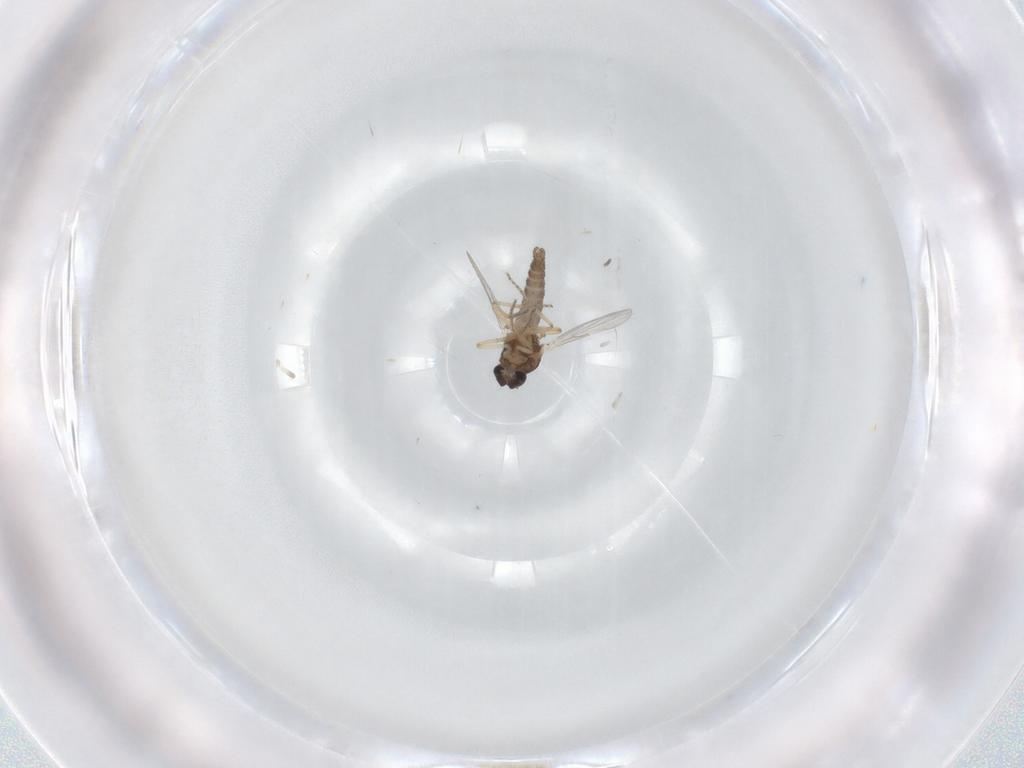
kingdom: Animalia
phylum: Arthropoda
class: Insecta
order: Diptera
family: Ceratopogonidae
